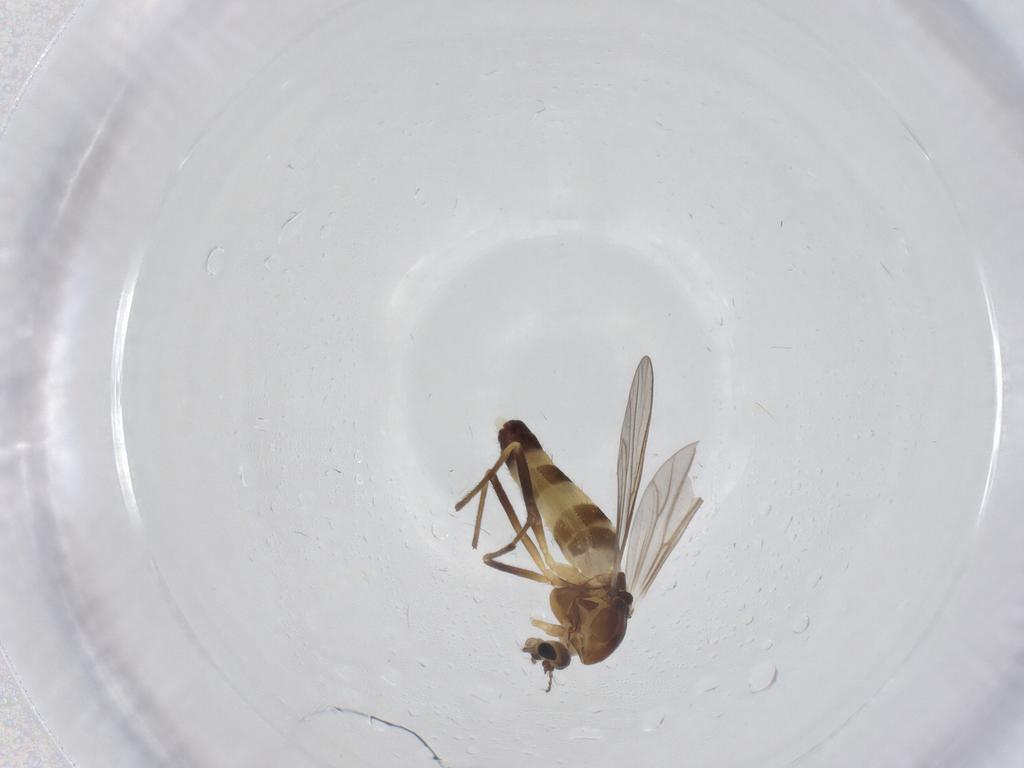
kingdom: Animalia
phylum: Arthropoda
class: Insecta
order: Diptera
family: Chironomidae
